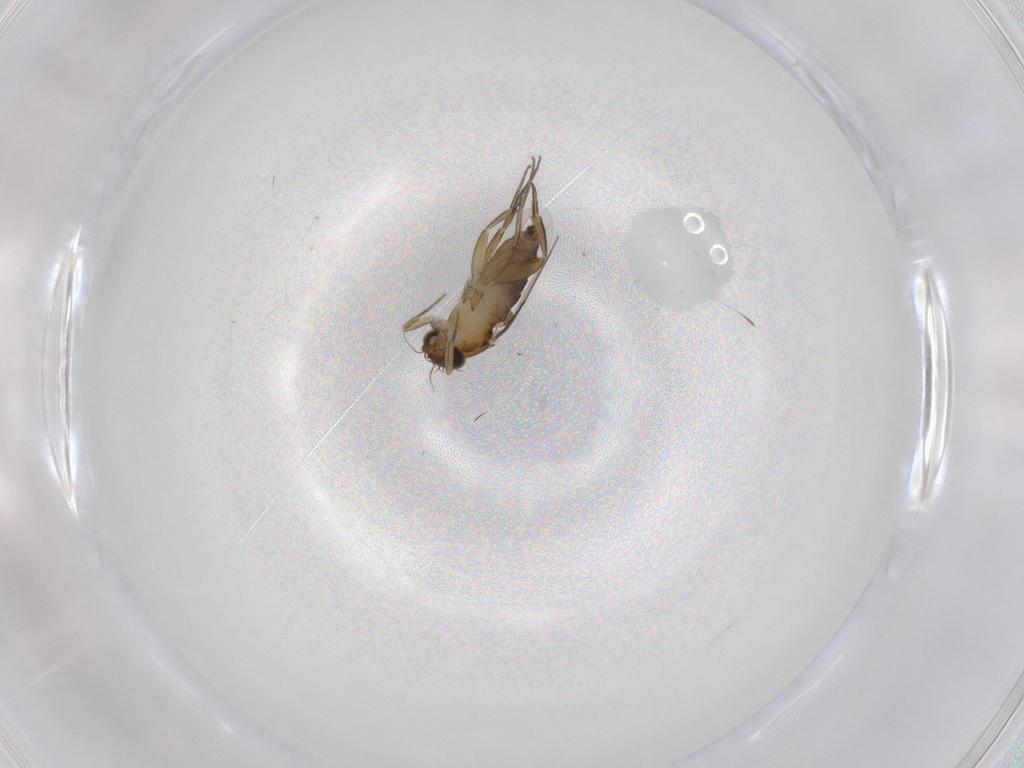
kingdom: Animalia
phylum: Arthropoda
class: Insecta
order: Diptera
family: Phoridae
